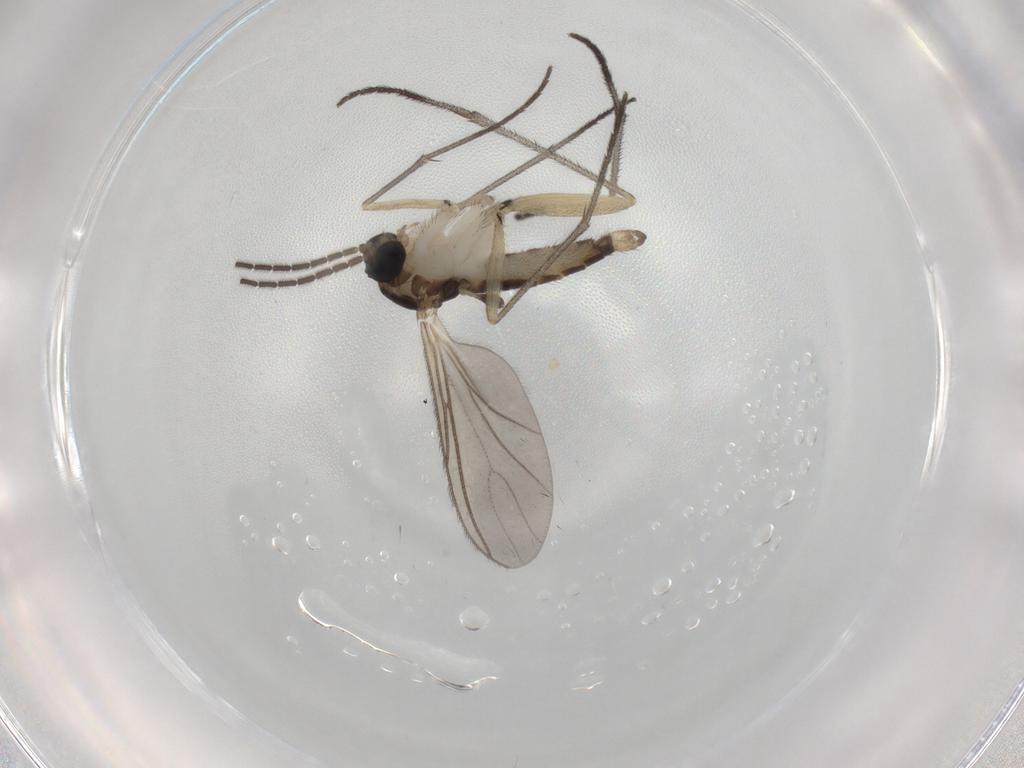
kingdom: Animalia
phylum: Arthropoda
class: Insecta
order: Diptera
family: Sciaridae
